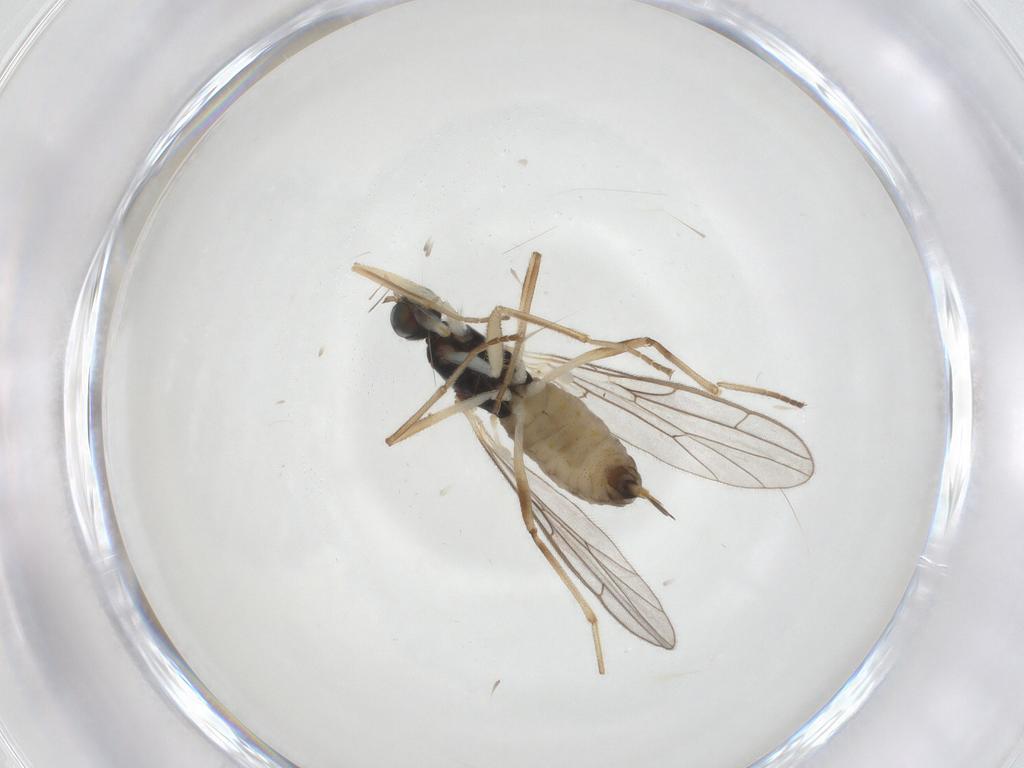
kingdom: Animalia
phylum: Arthropoda
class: Insecta
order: Diptera
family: Empididae
